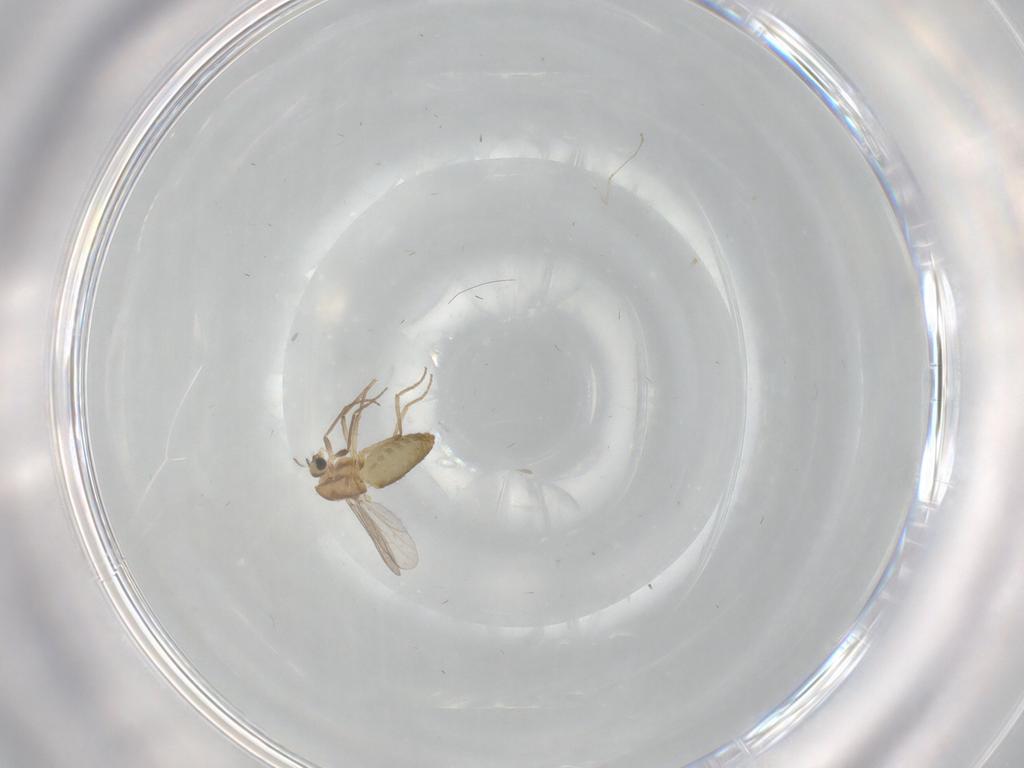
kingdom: Animalia
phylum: Arthropoda
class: Insecta
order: Diptera
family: Chironomidae
